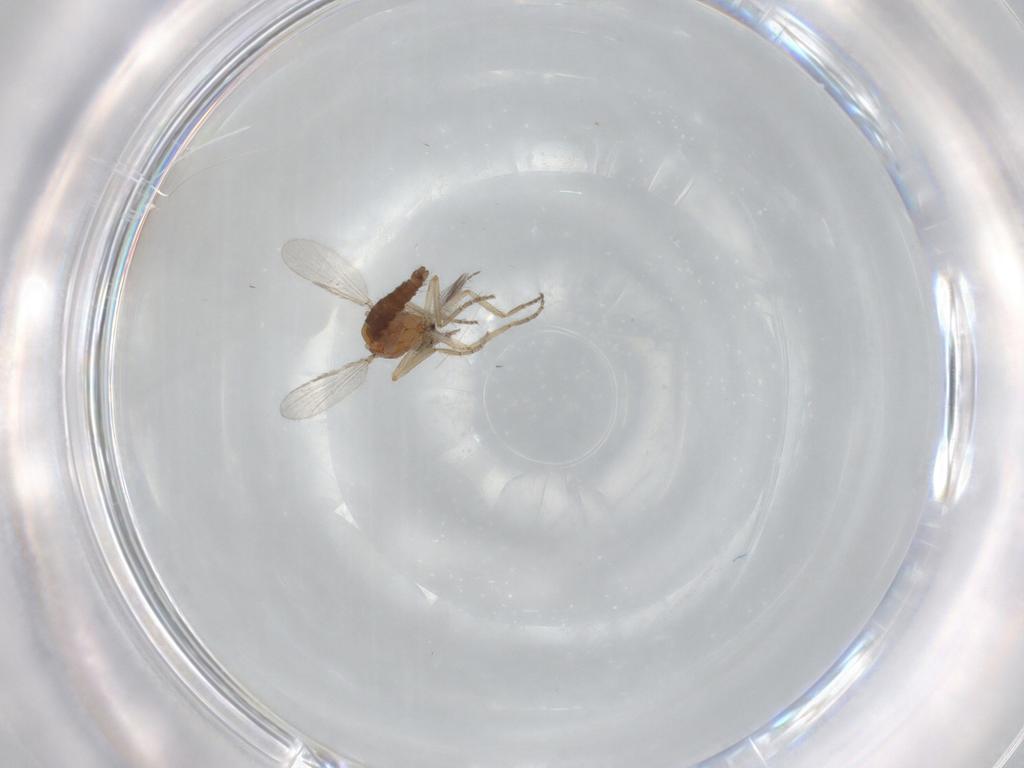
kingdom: Animalia
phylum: Arthropoda
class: Insecta
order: Diptera
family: Ceratopogonidae
